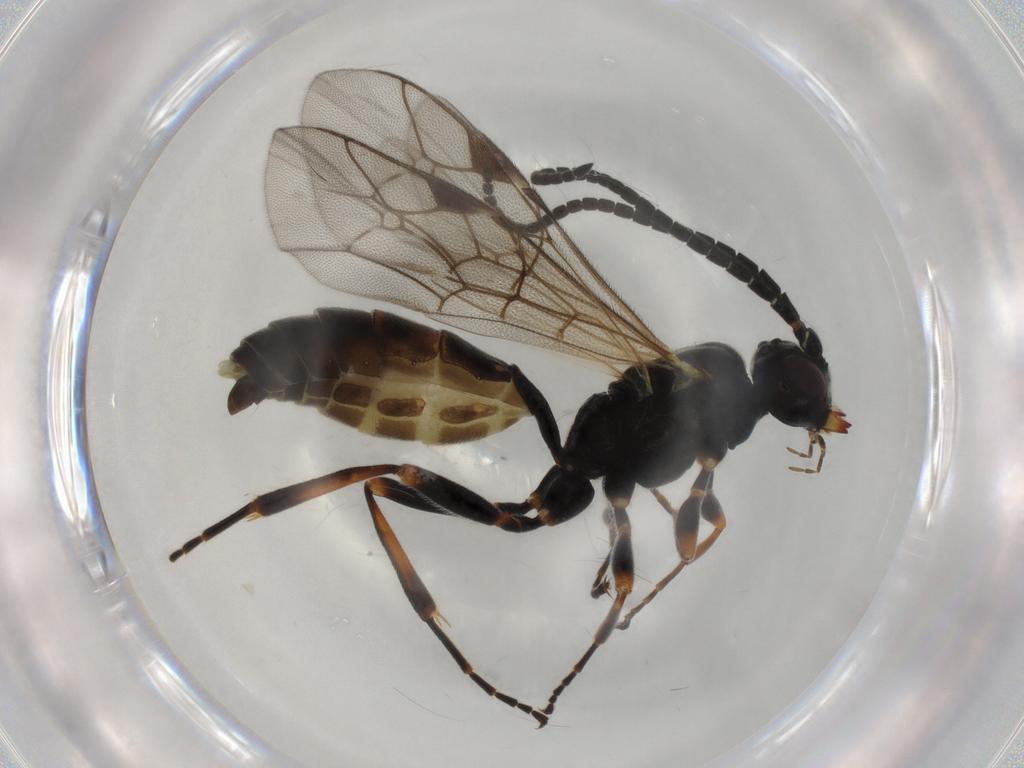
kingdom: Animalia
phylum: Arthropoda
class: Insecta
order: Hymenoptera
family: Ichneumonidae
